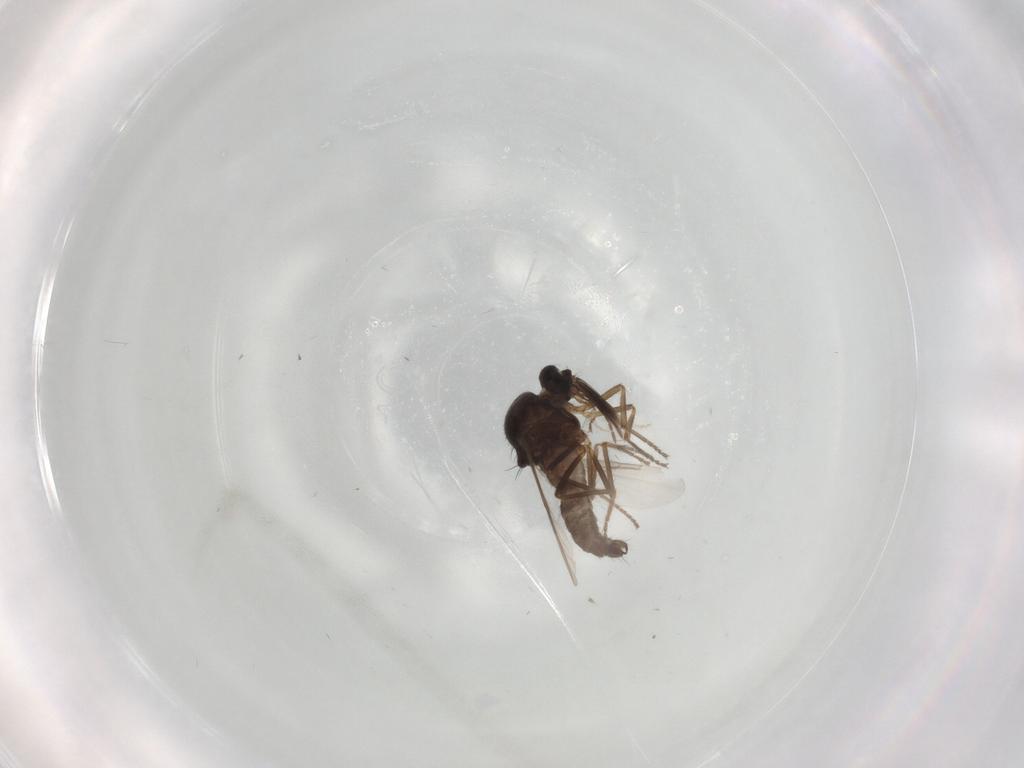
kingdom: Animalia
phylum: Arthropoda
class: Insecta
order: Diptera
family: Ceratopogonidae
